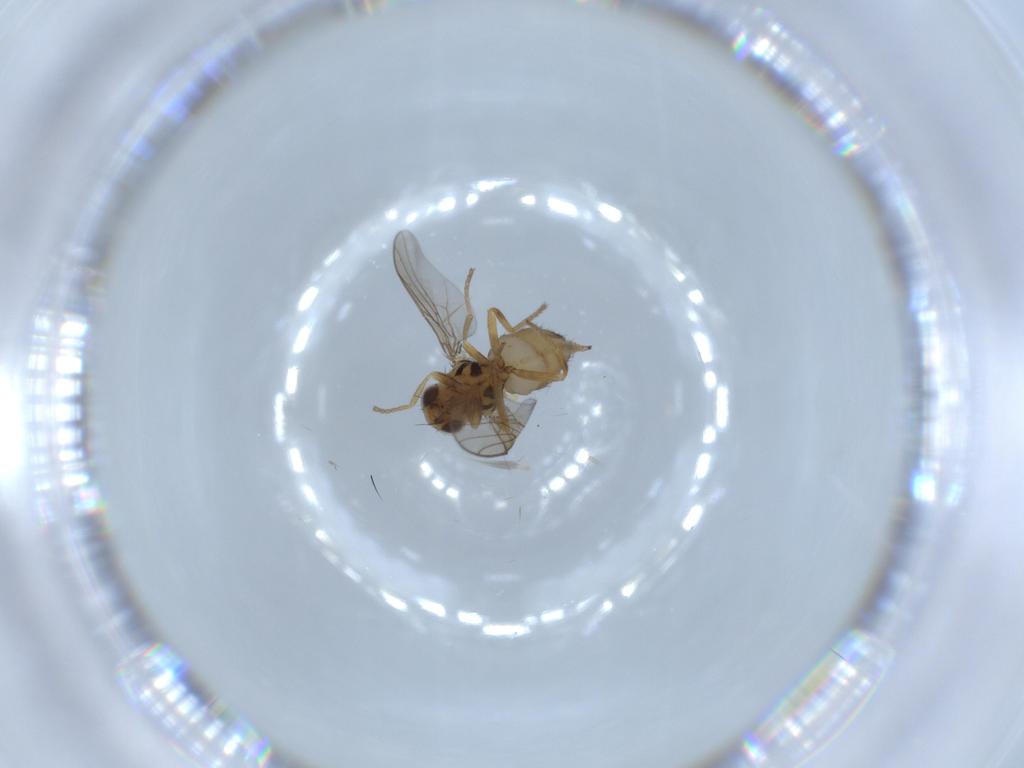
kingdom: Animalia
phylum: Arthropoda
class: Insecta
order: Diptera
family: Chloropidae
